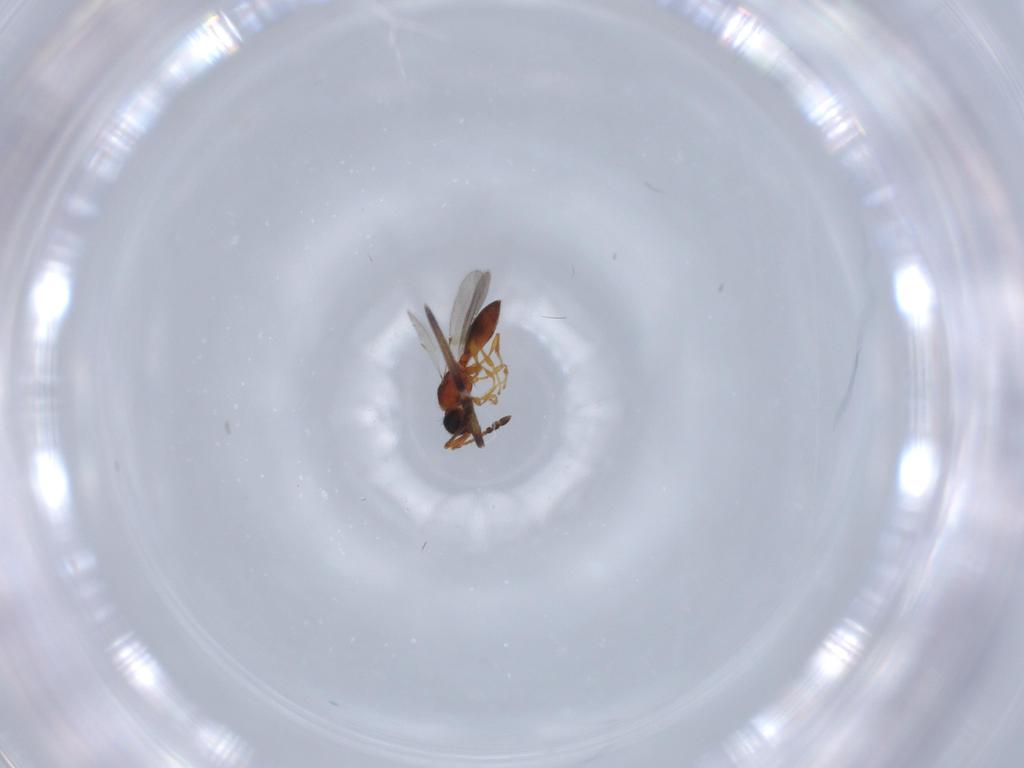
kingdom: Animalia
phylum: Arthropoda
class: Insecta
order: Hymenoptera
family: Diapriidae
